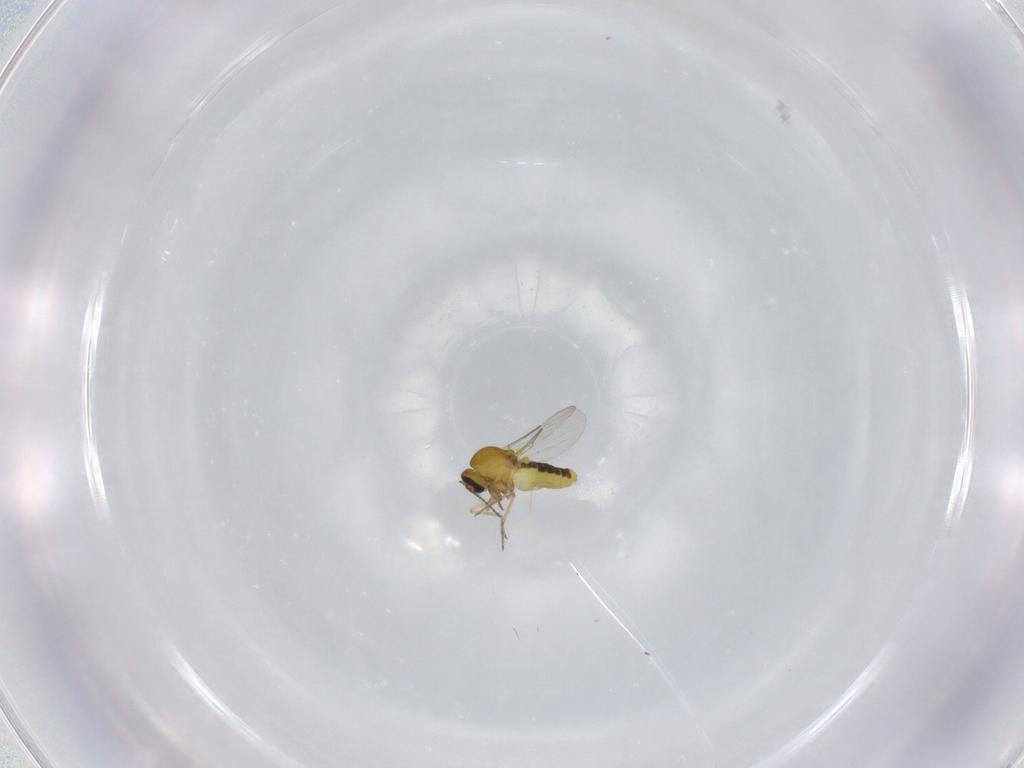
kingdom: Animalia
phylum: Arthropoda
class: Insecta
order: Diptera
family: Ceratopogonidae
